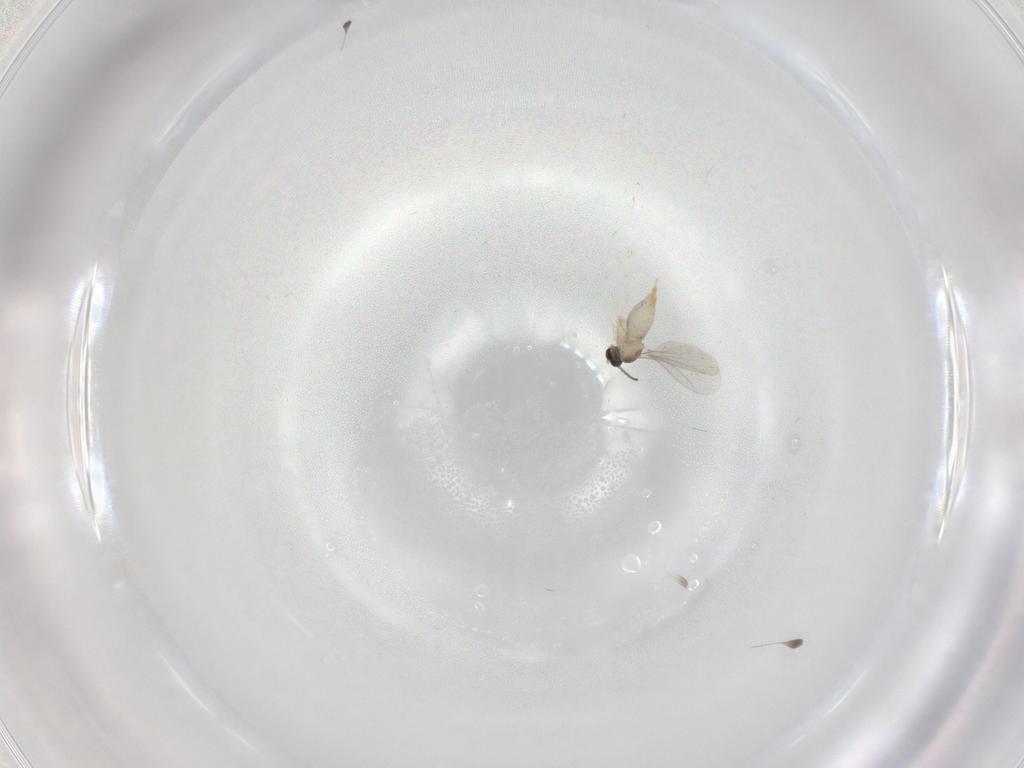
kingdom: Animalia
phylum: Arthropoda
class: Insecta
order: Diptera
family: Cecidomyiidae
